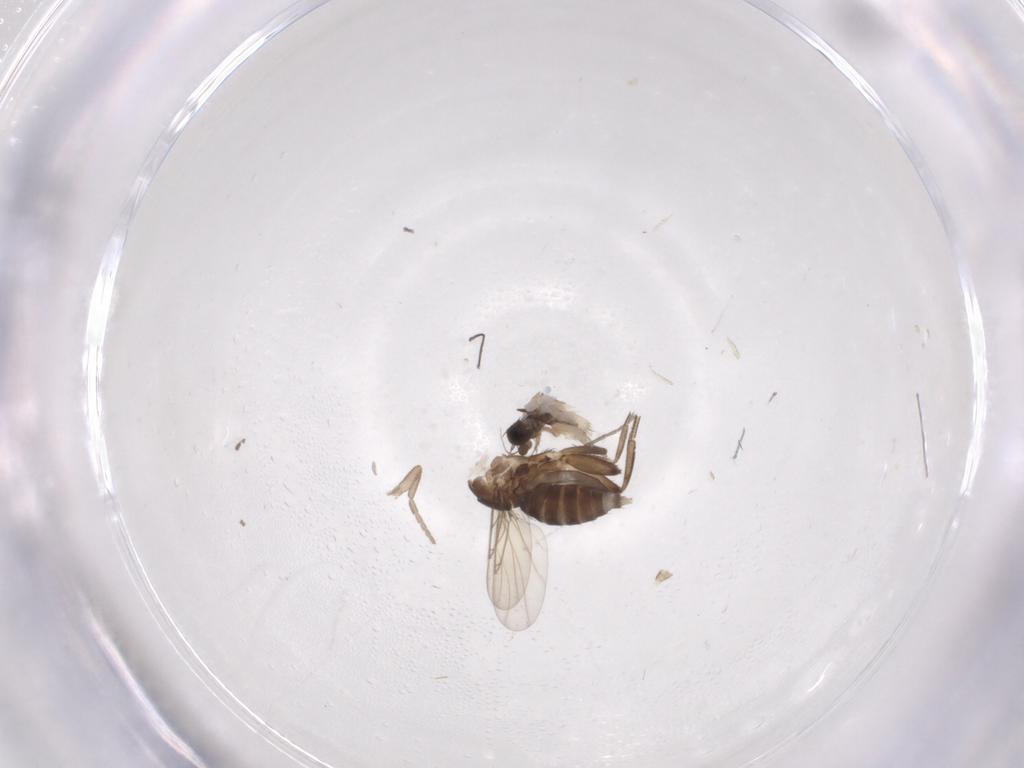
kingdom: Animalia
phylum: Arthropoda
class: Insecta
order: Diptera
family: Phoridae
